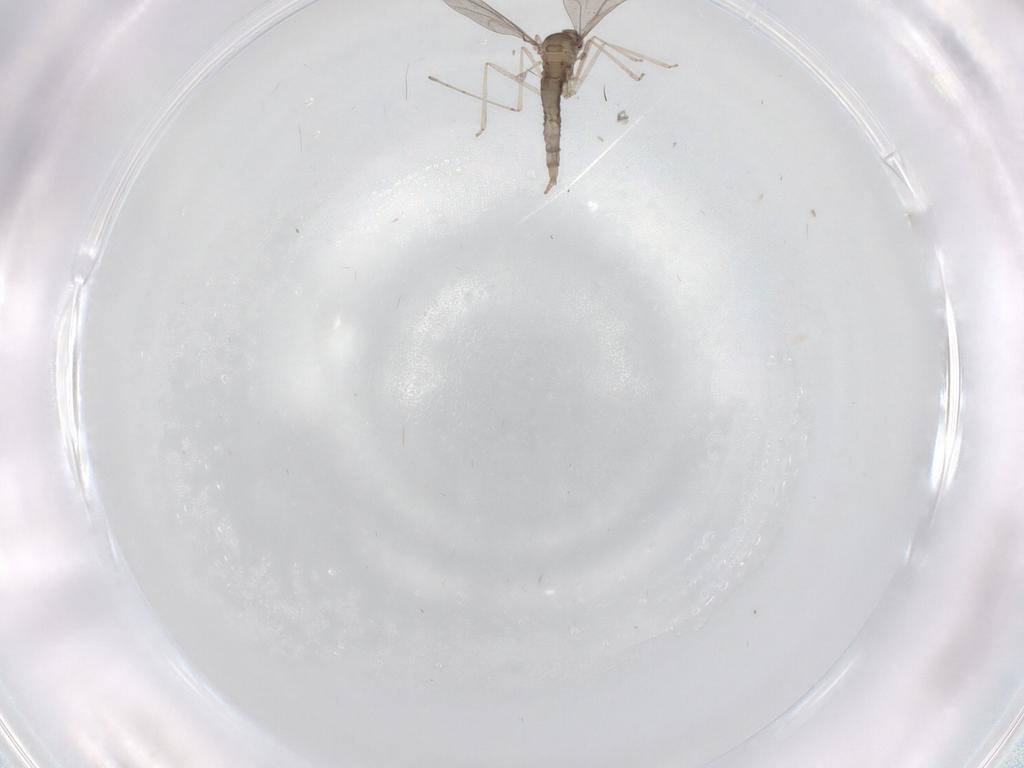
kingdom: Animalia
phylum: Arthropoda
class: Insecta
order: Diptera
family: Cecidomyiidae
